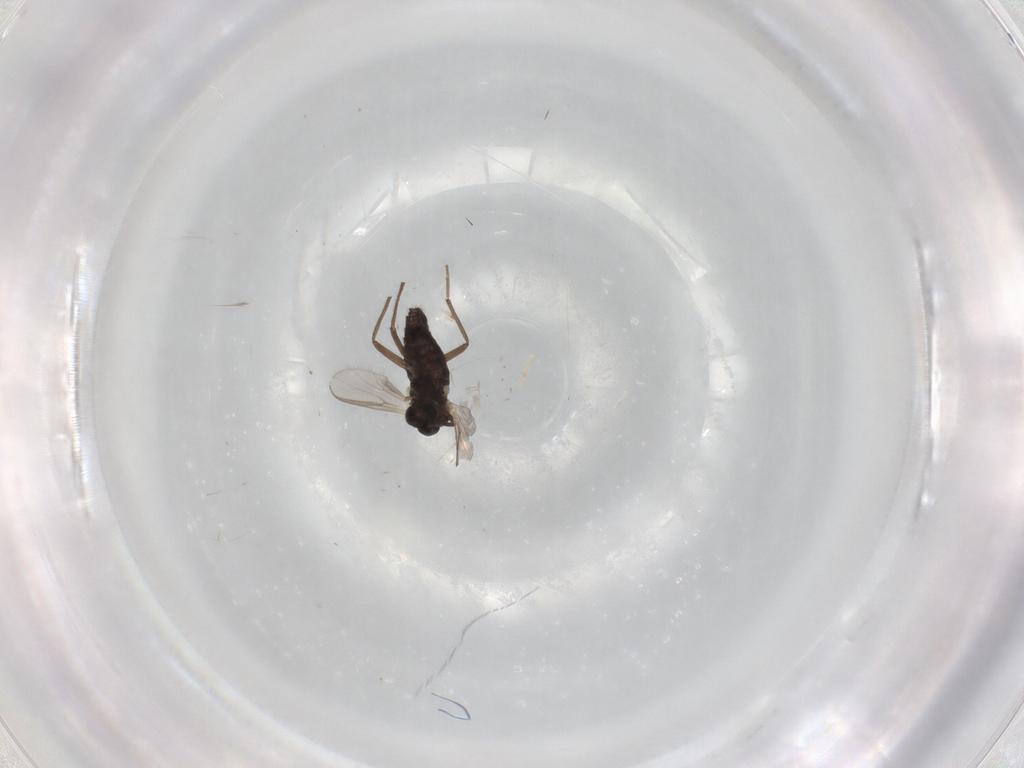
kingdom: Animalia
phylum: Arthropoda
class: Insecta
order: Diptera
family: Chironomidae
